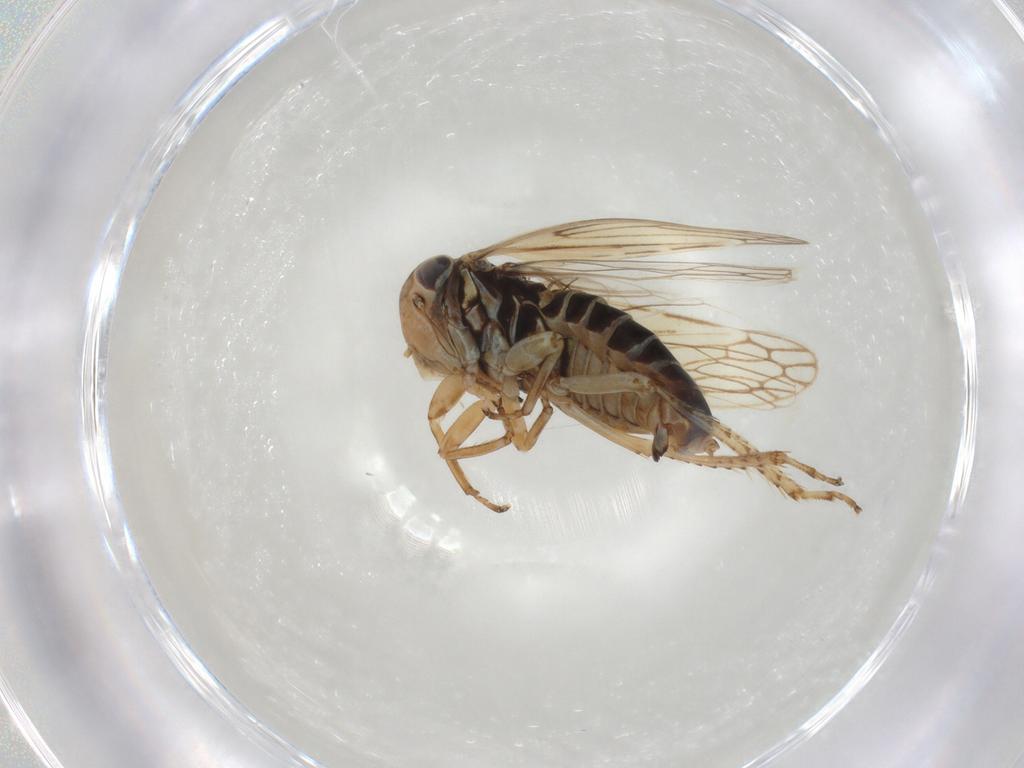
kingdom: Animalia
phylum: Arthropoda
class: Insecta
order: Hemiptera
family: Cicadellidae
